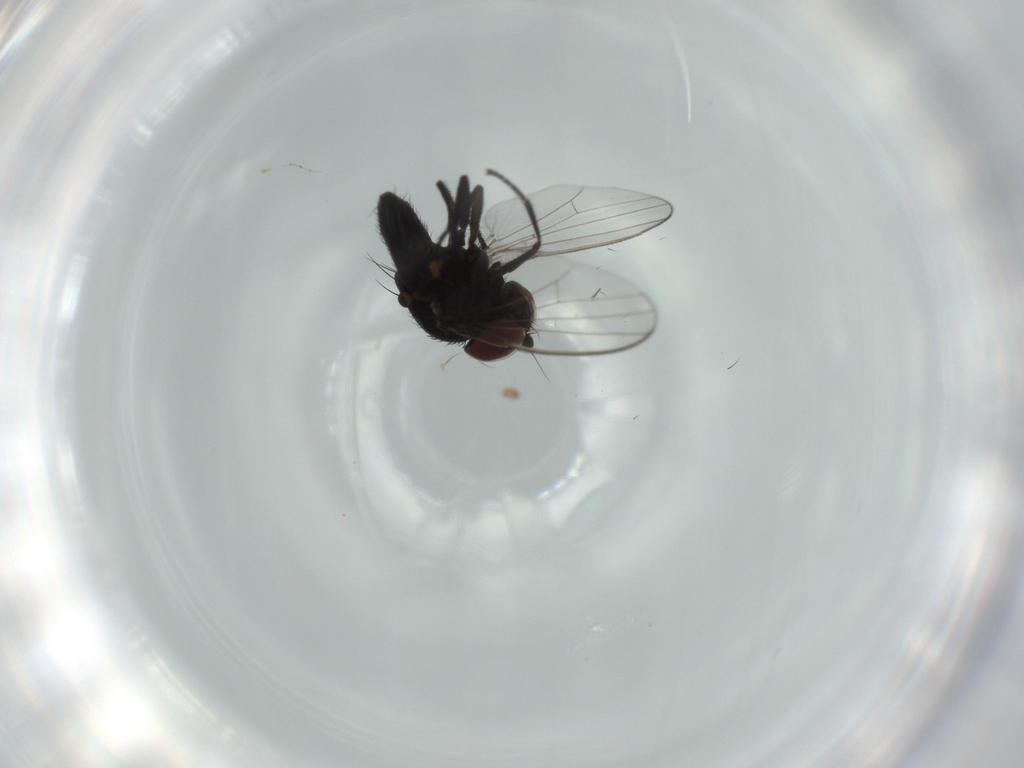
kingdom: Animalia
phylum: Arthropoda
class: Insecta
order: Diptera
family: Milichiidae
